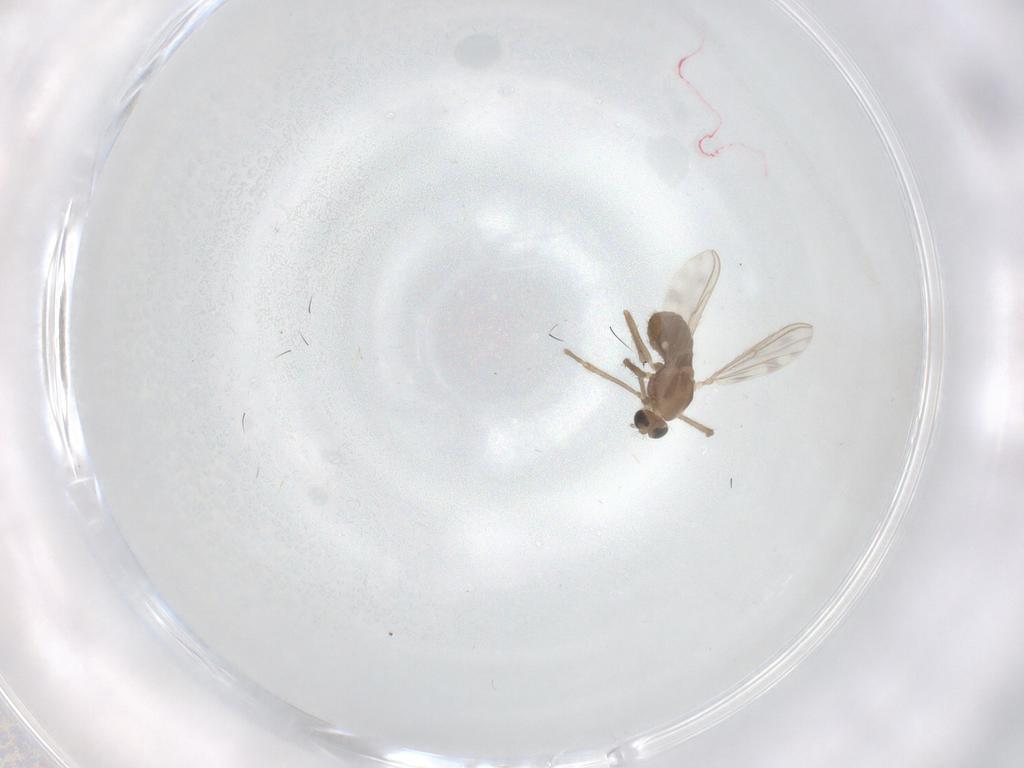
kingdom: Animalia
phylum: Arthropoda
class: Insecta
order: Diptera
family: Chironomidae
